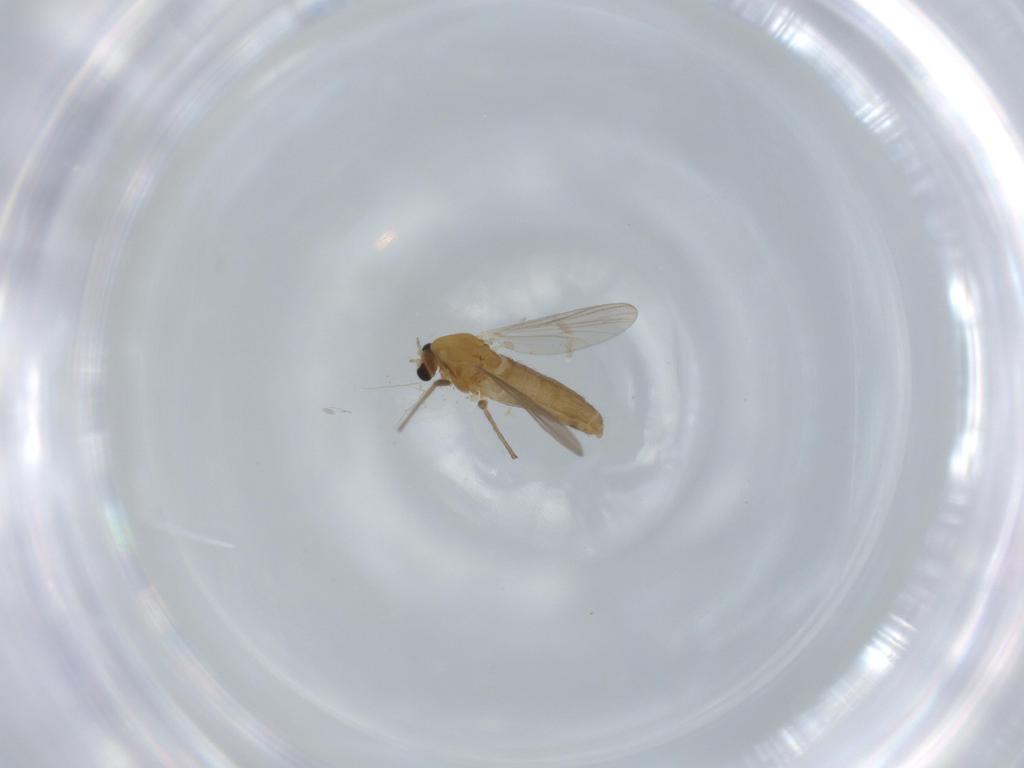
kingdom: Animalia
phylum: Arthropoda
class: Insecta
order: Diptera
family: Chironomidae
